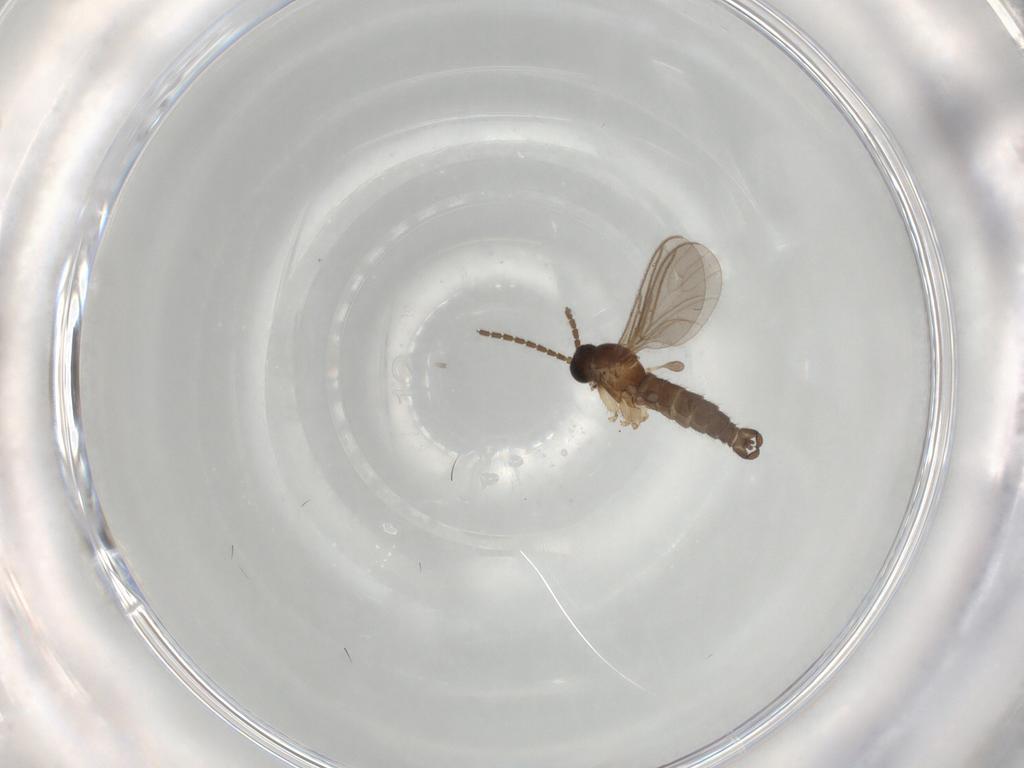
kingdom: Animalia
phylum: Arthropoda
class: Insecta
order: Diptera
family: Sciaridae
